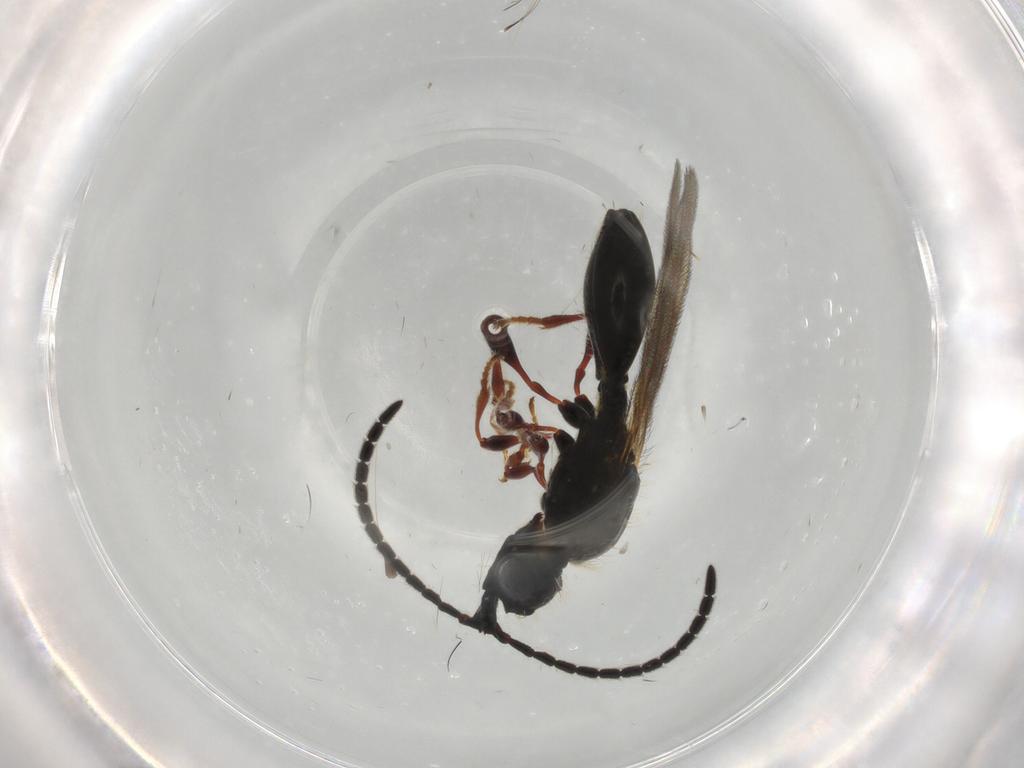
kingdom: Animalia
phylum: Arthropoda
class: Insecta
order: Hymenoptera
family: Diapriidae
